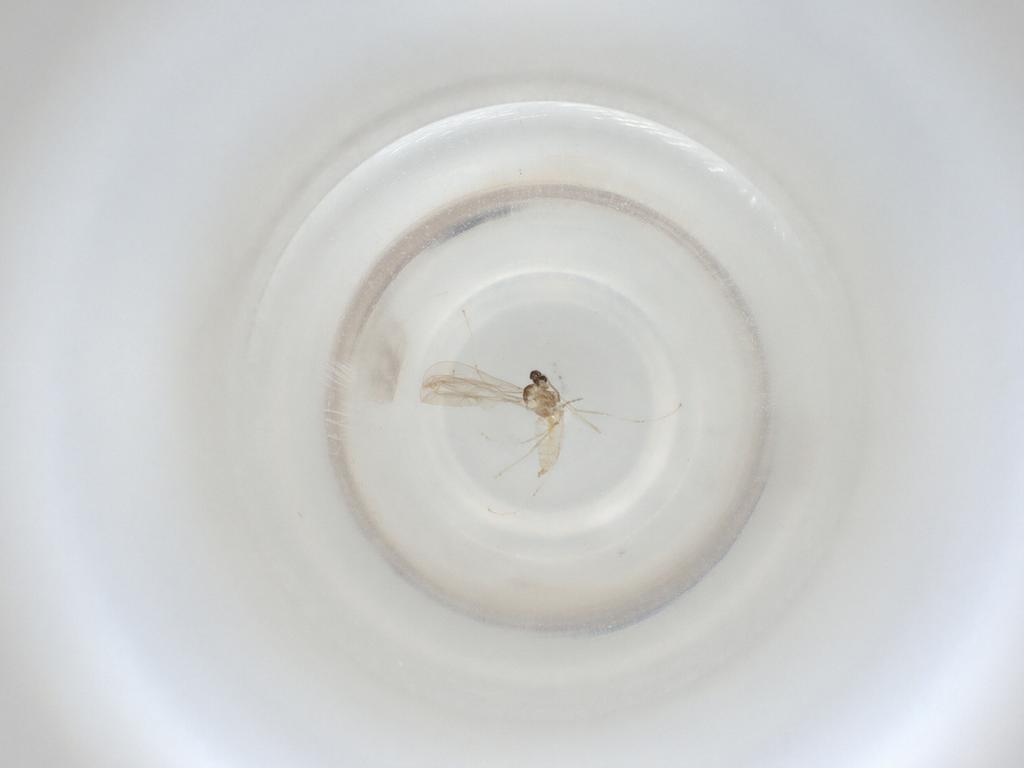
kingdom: Animalia
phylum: Arthropoda
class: Insecta
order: Diptera
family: Cecidomyiidae
